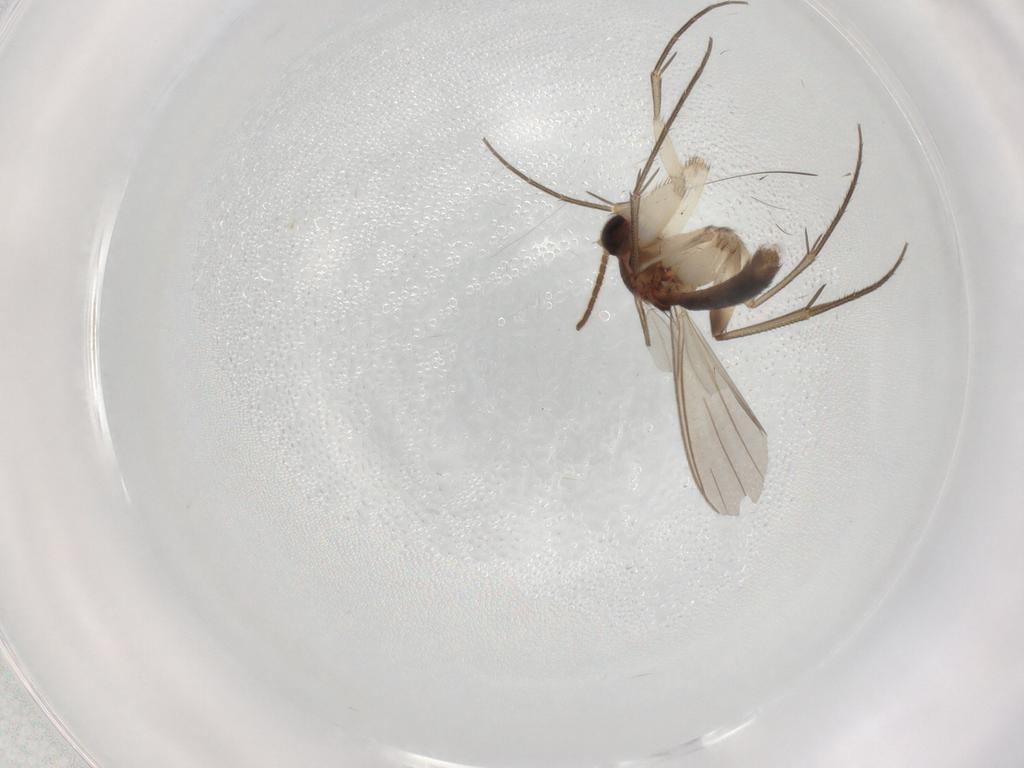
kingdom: Animalia
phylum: Arthropoda
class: Insecta
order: Diptera
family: Mycetophilidae
